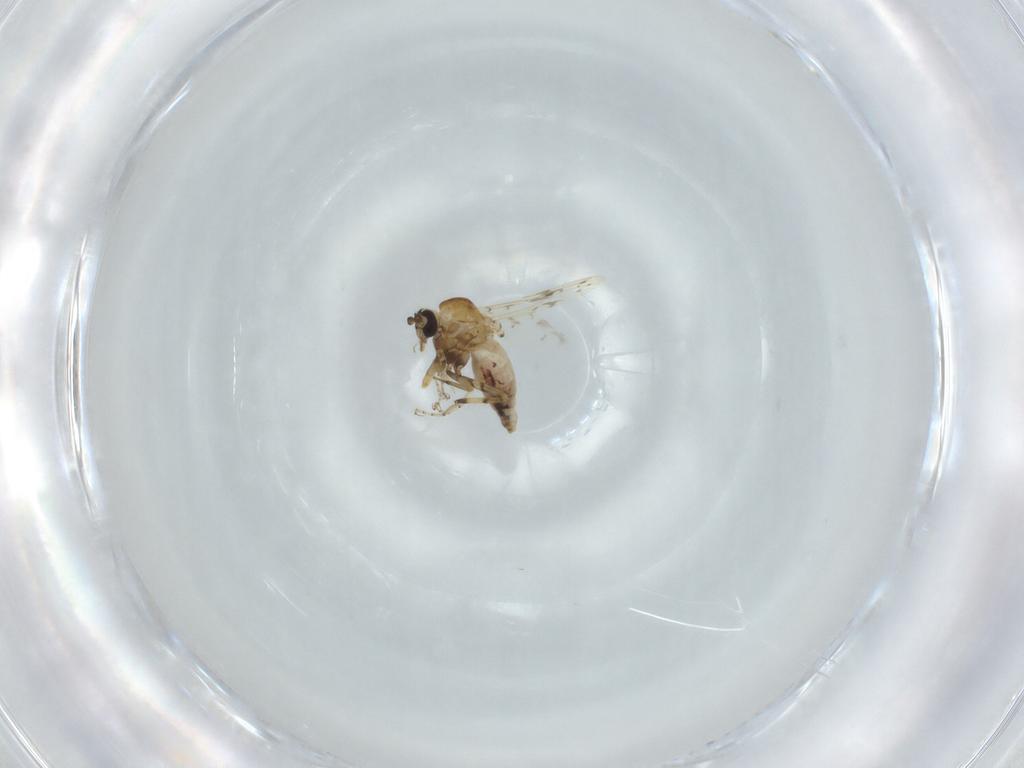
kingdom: Animalia
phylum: Arthropoda
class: Insecta
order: Diptera
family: Ceratopogonidae
